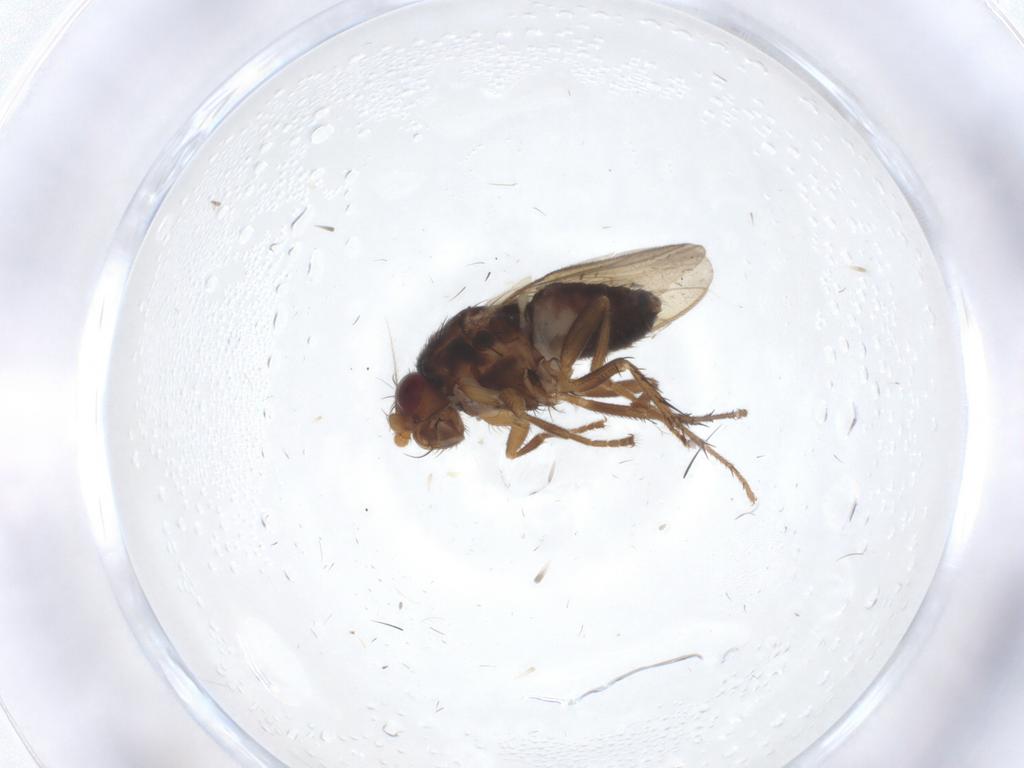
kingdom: Animalia
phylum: Arthropoda
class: Insecta
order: Diptera
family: Sphaeroceridae
